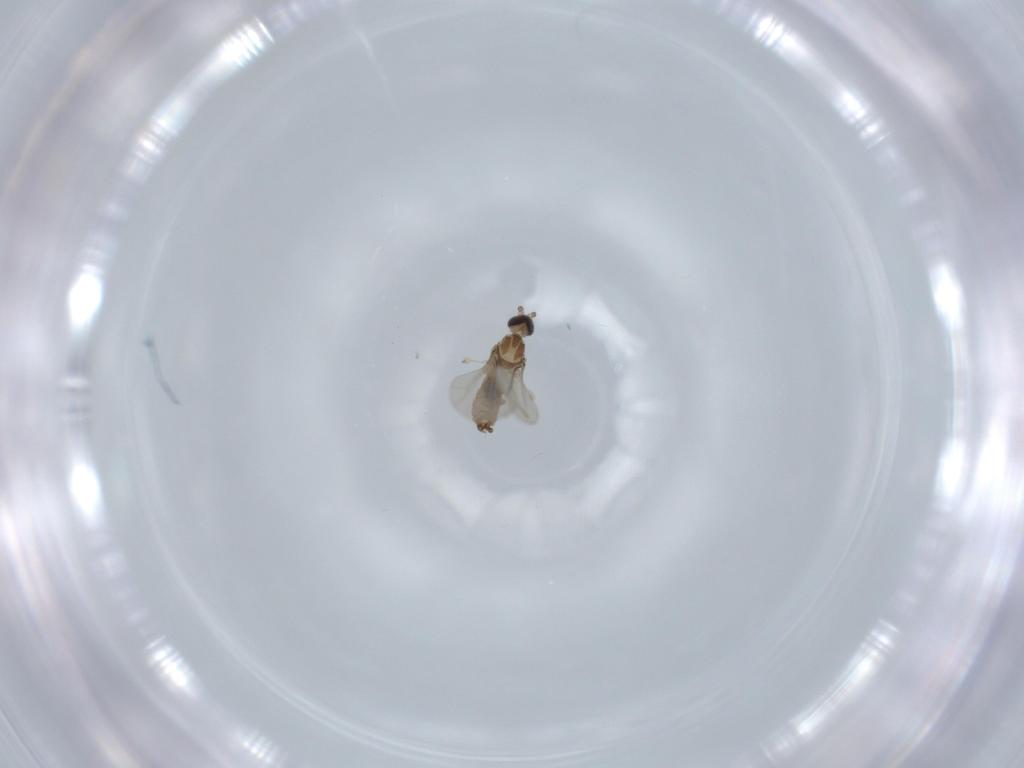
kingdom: Animalia
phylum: Arthropoda
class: Insecta
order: Diptera
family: Cecidomyiidae
